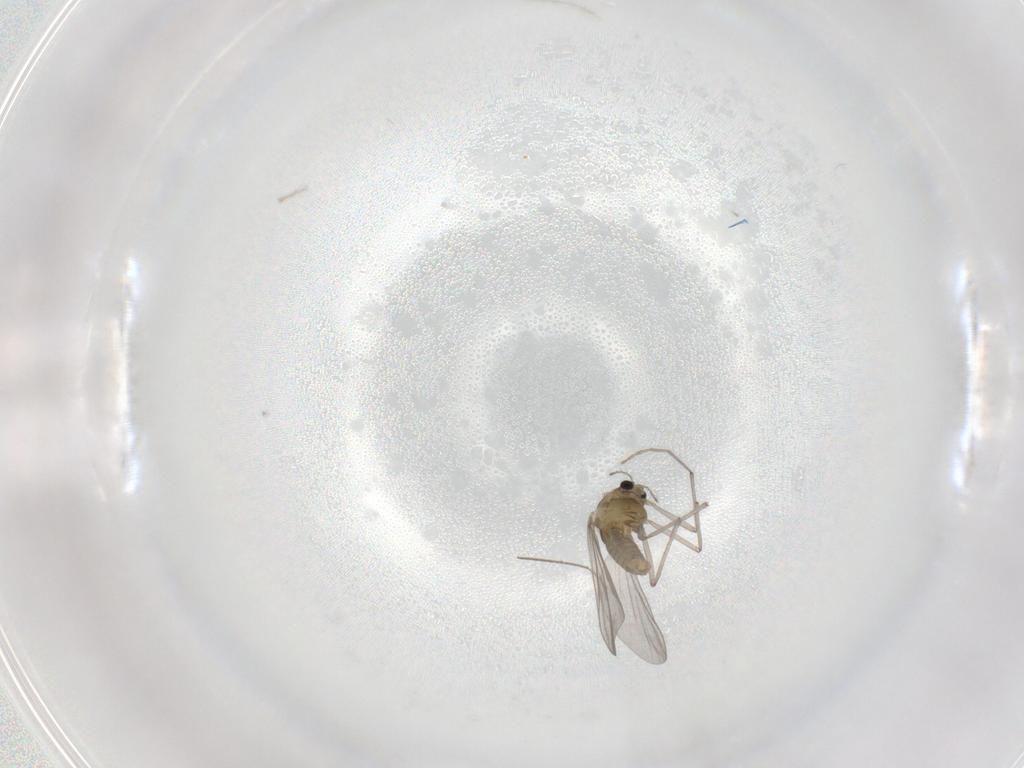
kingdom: Animalia
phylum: Arthropoda
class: Insecta
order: Diptera
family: Chironomidae
